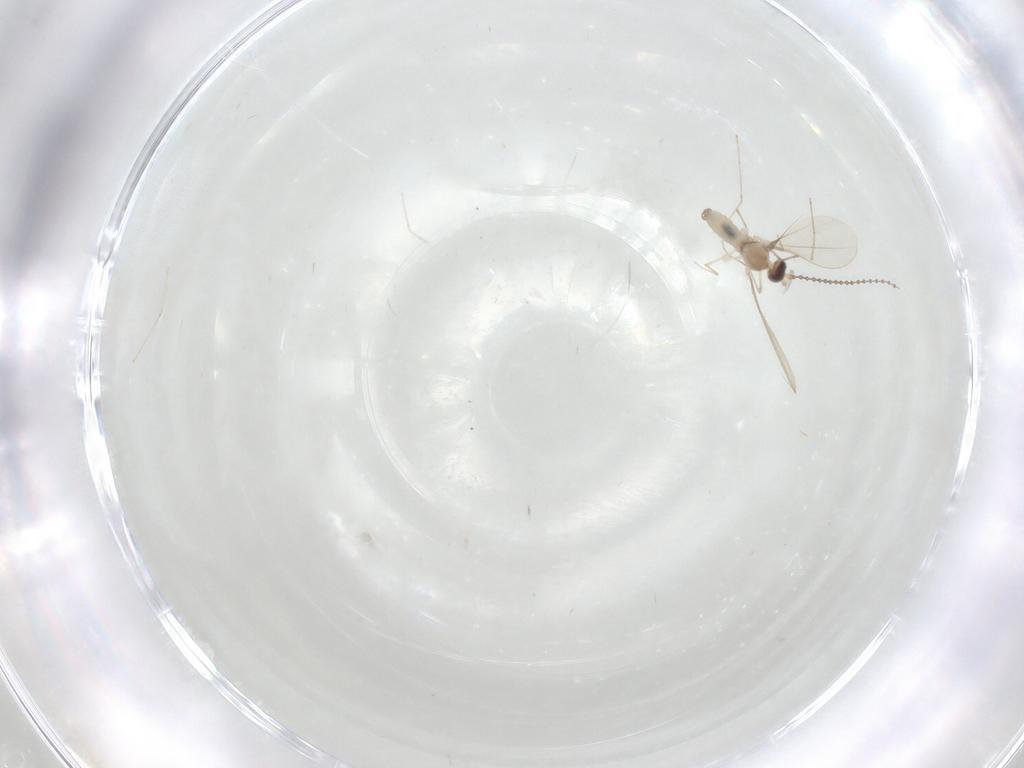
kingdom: Animalia
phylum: Arthropoda
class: Insecta
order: Diptera
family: Cecidomyiidae
